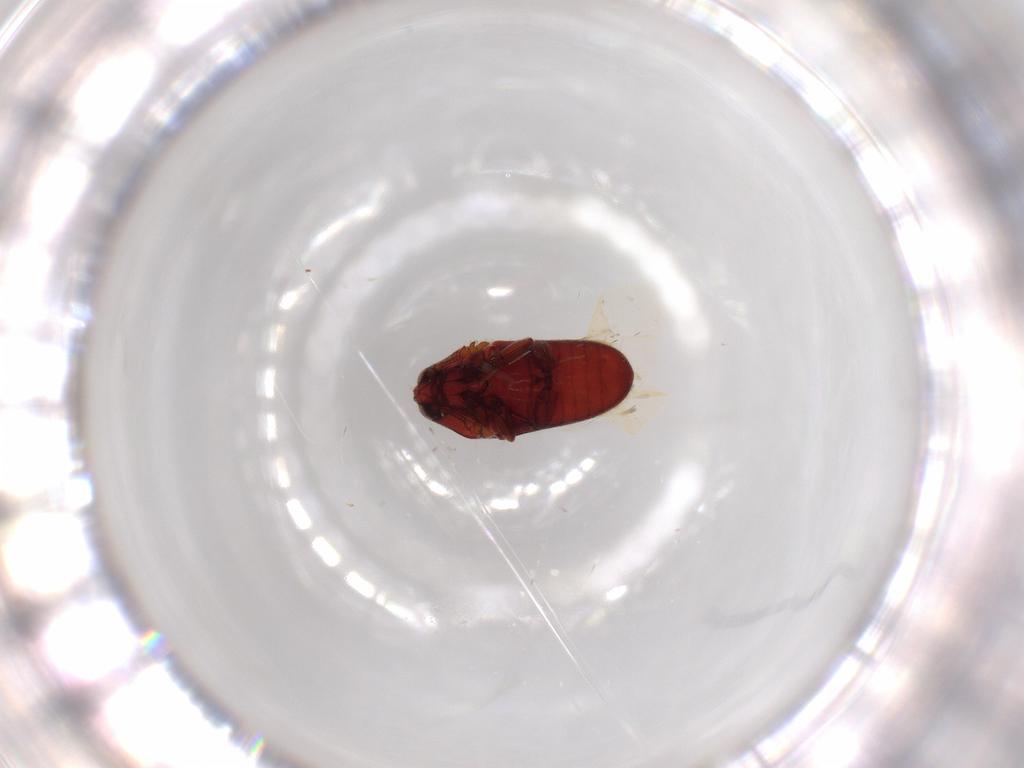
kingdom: Animalia
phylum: Arthropoda
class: Insecta
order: Coleoptera
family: Throscidae
